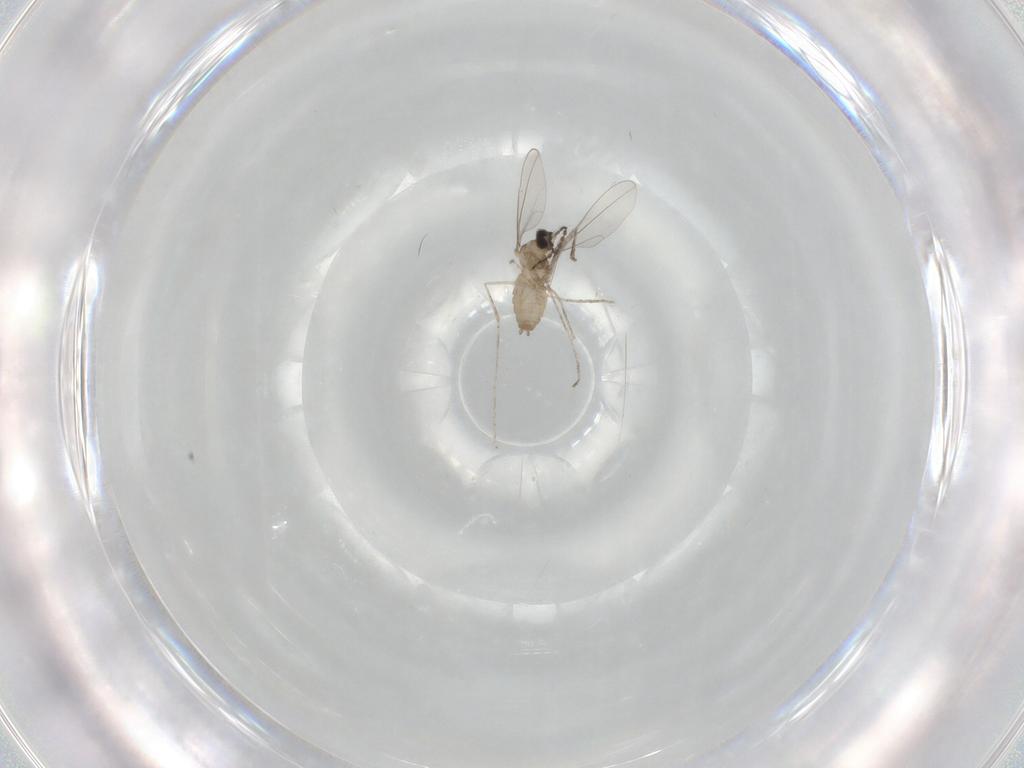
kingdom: Animalia
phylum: Arthropoda
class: Insecta
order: Diptera
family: Cecidomyiidae
